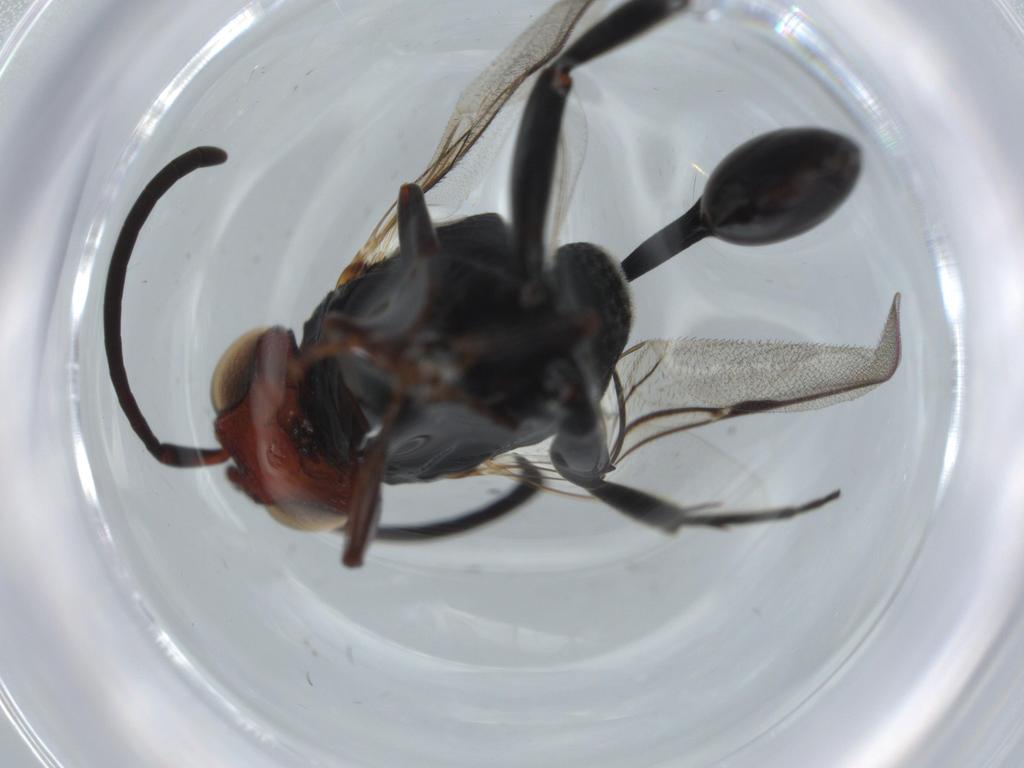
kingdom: Animalia
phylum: Arthropoda
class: Insecta
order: Hymenoptera
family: Evaniidae
